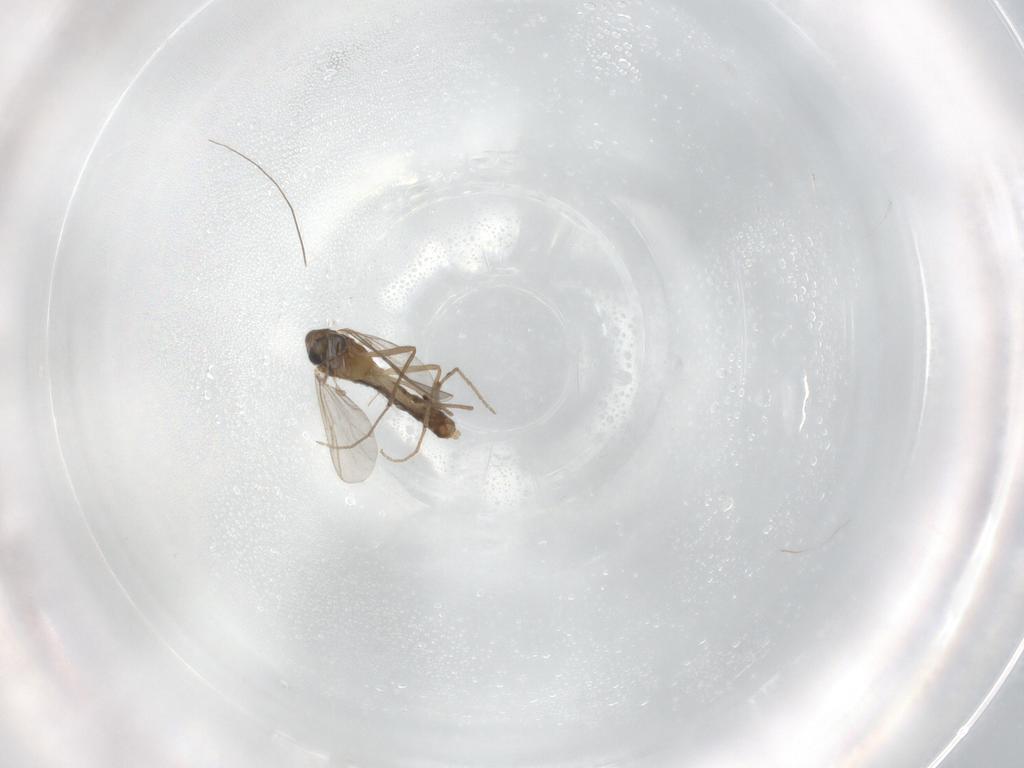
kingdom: Animalia
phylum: Arthropoda
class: Insecta
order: Diptera
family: Chironomidae
